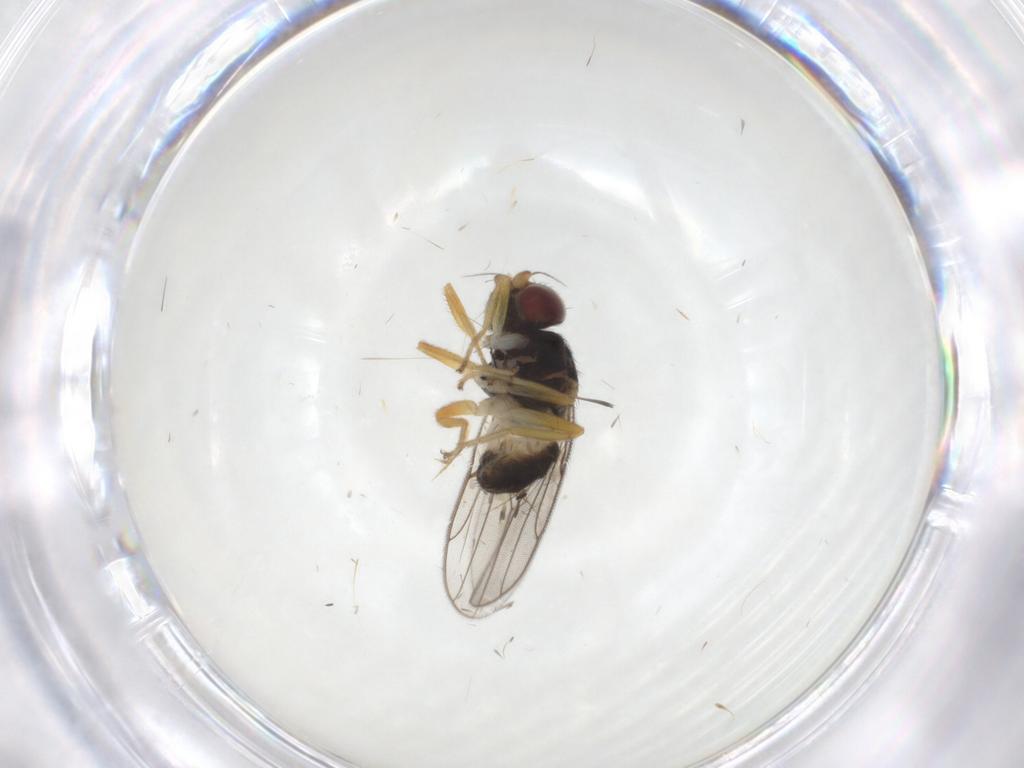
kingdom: Animalia
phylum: Arthropoda
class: Insecta
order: Diptera
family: Chloropidae
